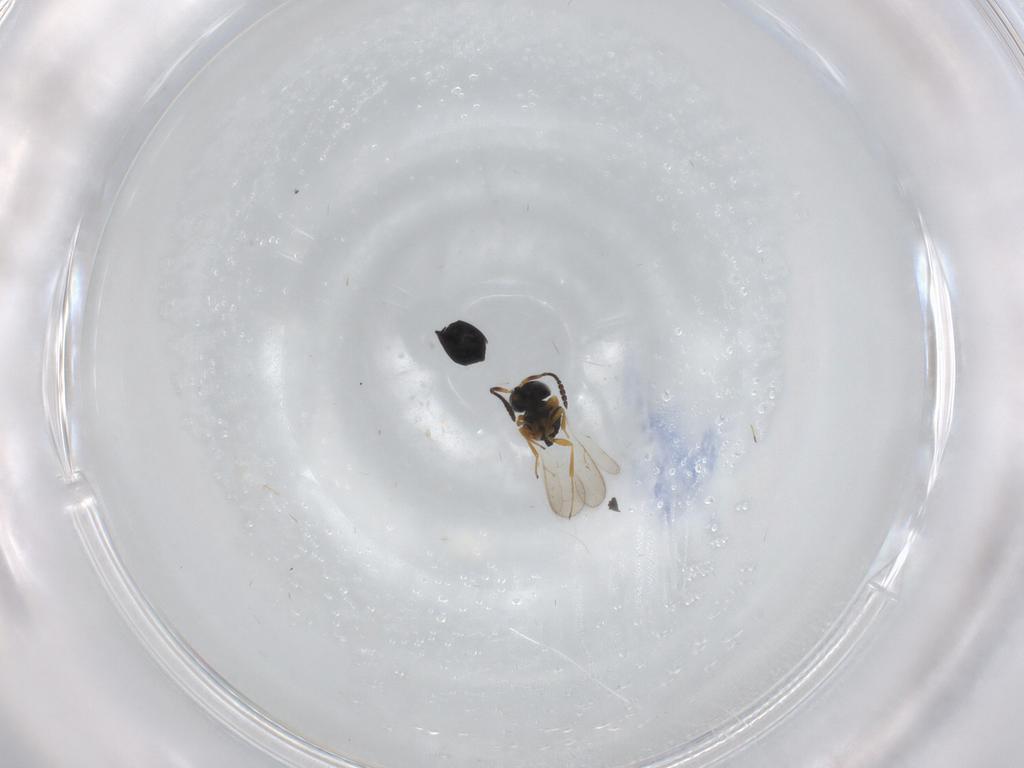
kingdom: Animalia
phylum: Arthropoda
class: Insecta
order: Hymenoptera
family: Scelionidae
